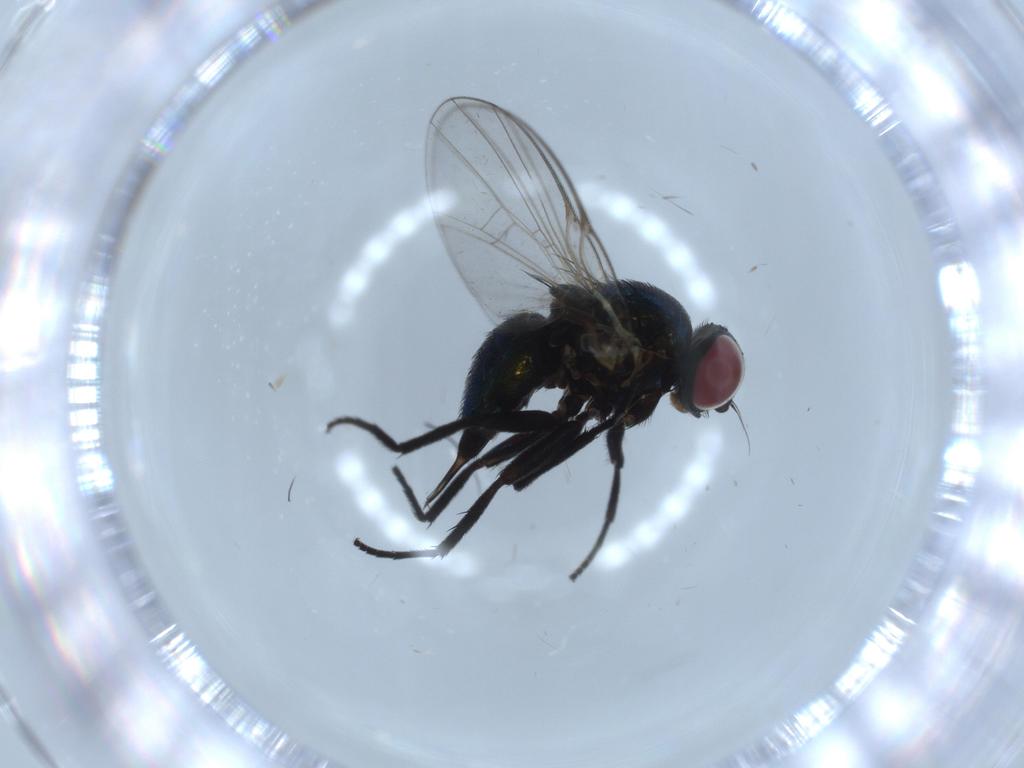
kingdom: Animalia
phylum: Arthropoda
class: Insecta
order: Diptera
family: Agromyzidae
